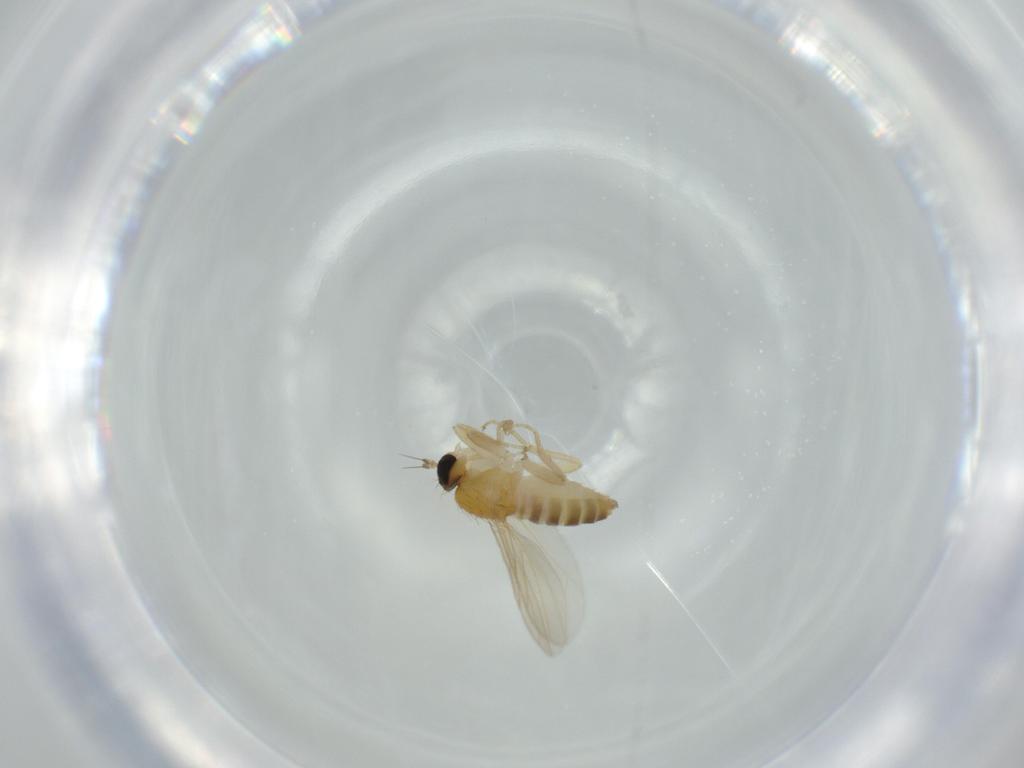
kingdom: Animalia
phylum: Arthropoda
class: Insecta
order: Diptera
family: Hybotidae
